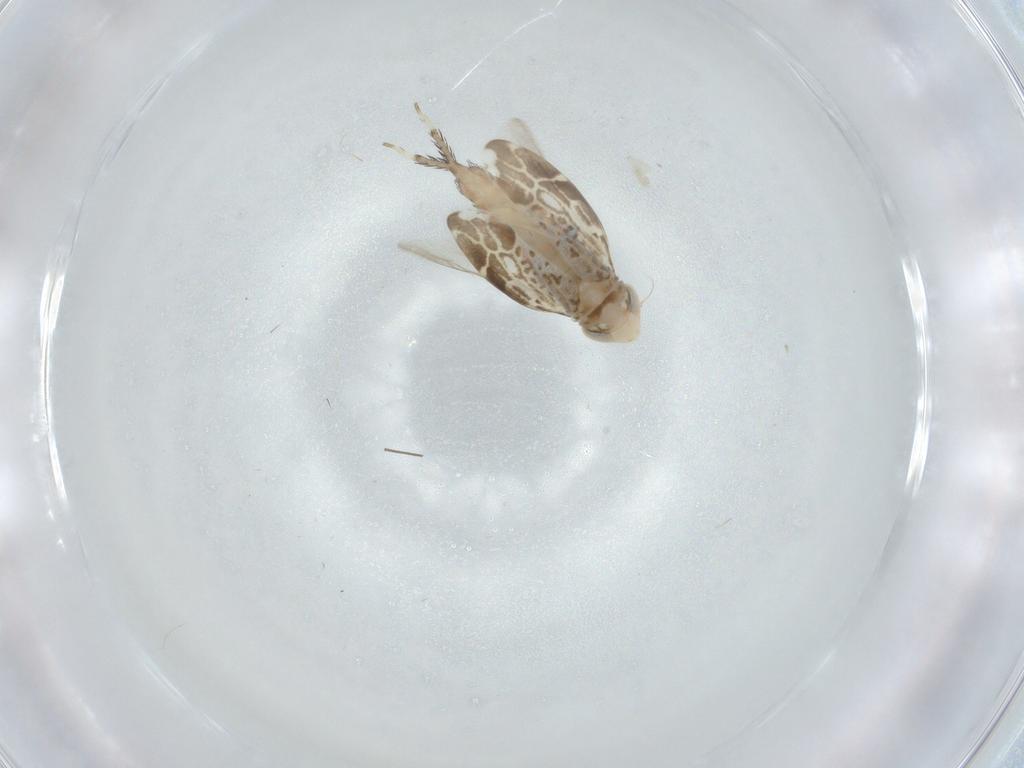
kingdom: Animalia
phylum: Arthropoda
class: Insecta
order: Hemiptera
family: Cicadellidae
